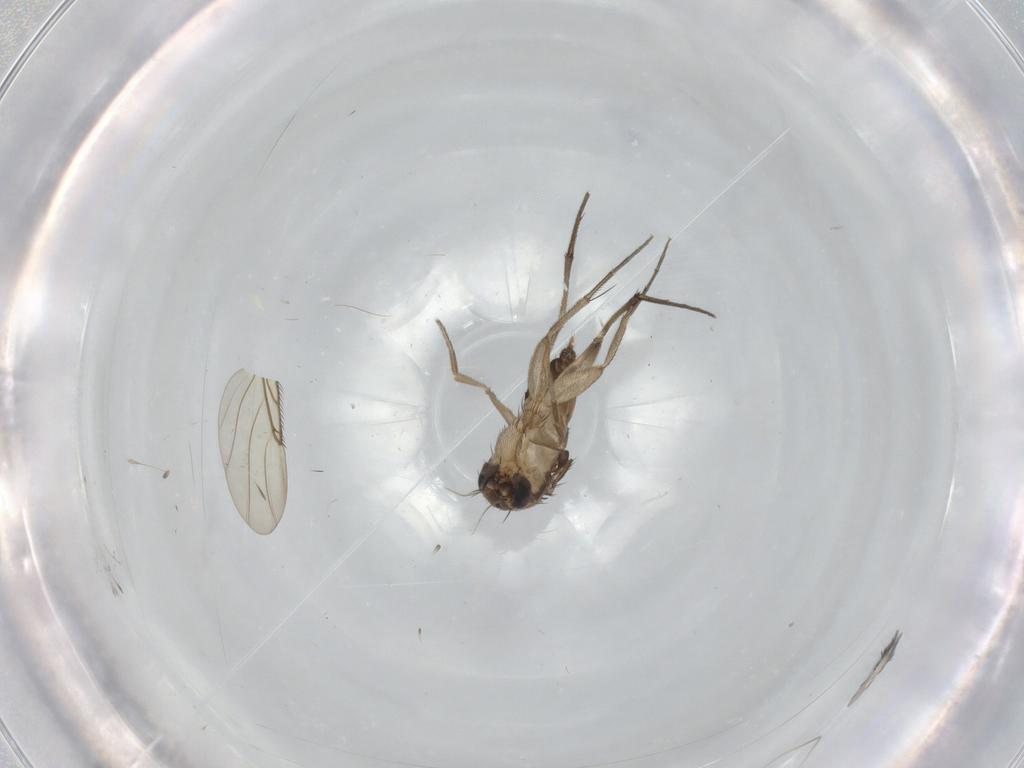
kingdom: Animalia
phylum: Arthropoda
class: Insecta
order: Diptera
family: Phoridae
